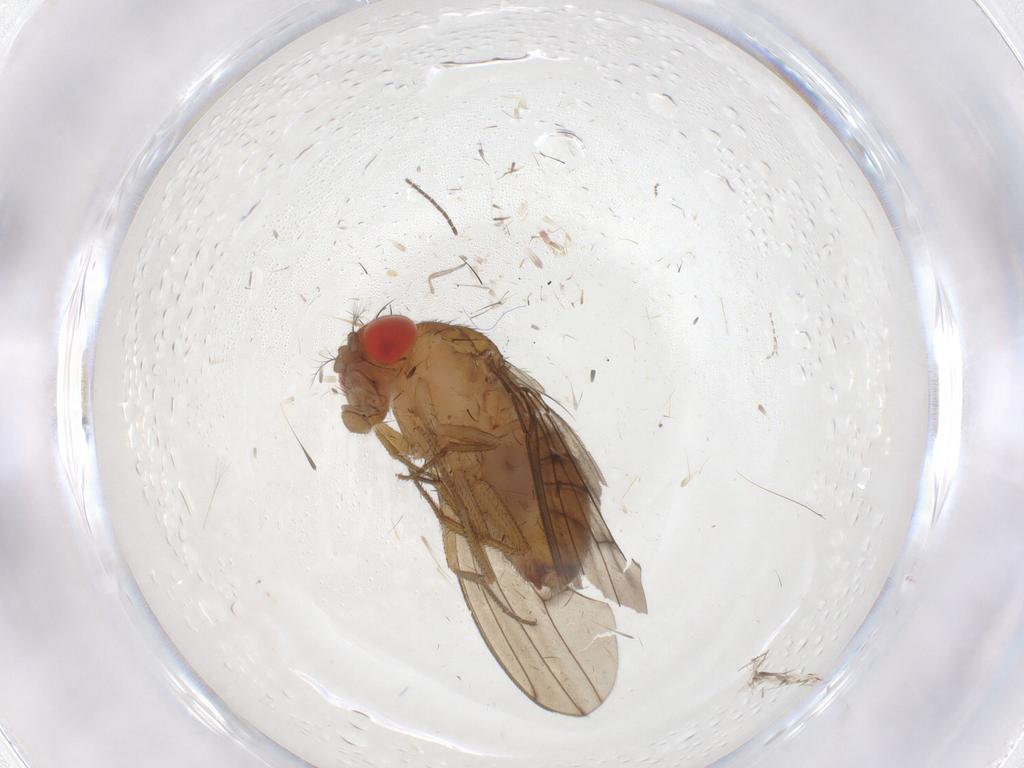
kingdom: Animalia
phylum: Arthropoda
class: Insecta
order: Diptera
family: Drosophilidae
